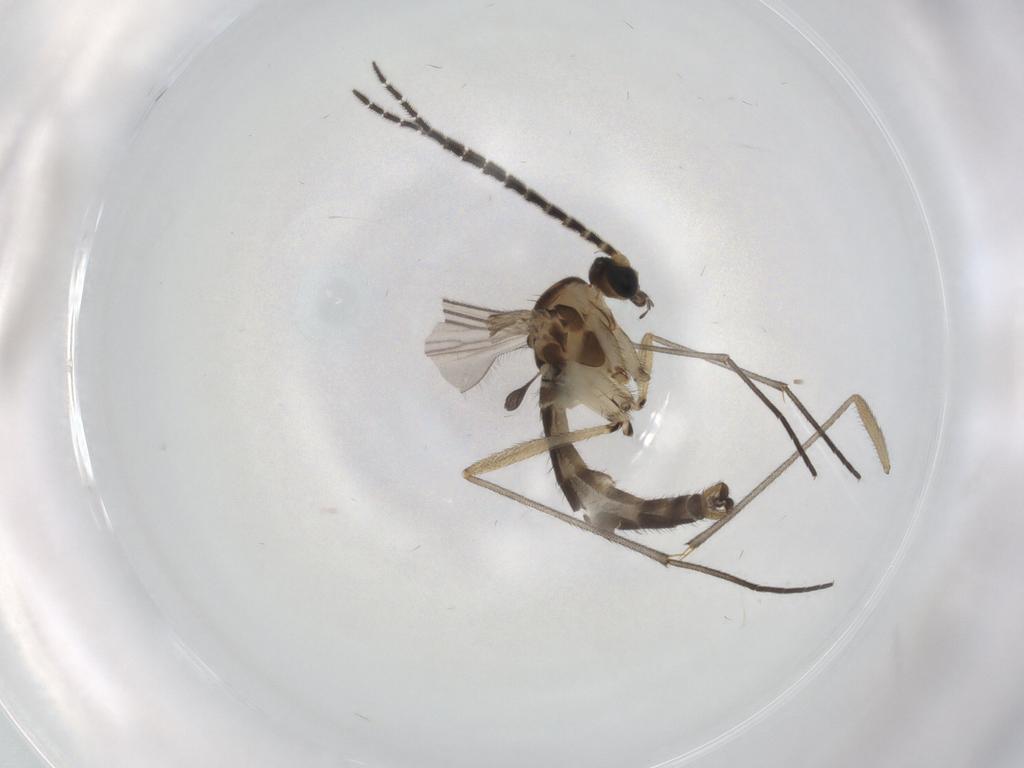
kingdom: Animalia
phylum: Arthropoda
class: Insecta
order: Diptera
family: Sciaridae
